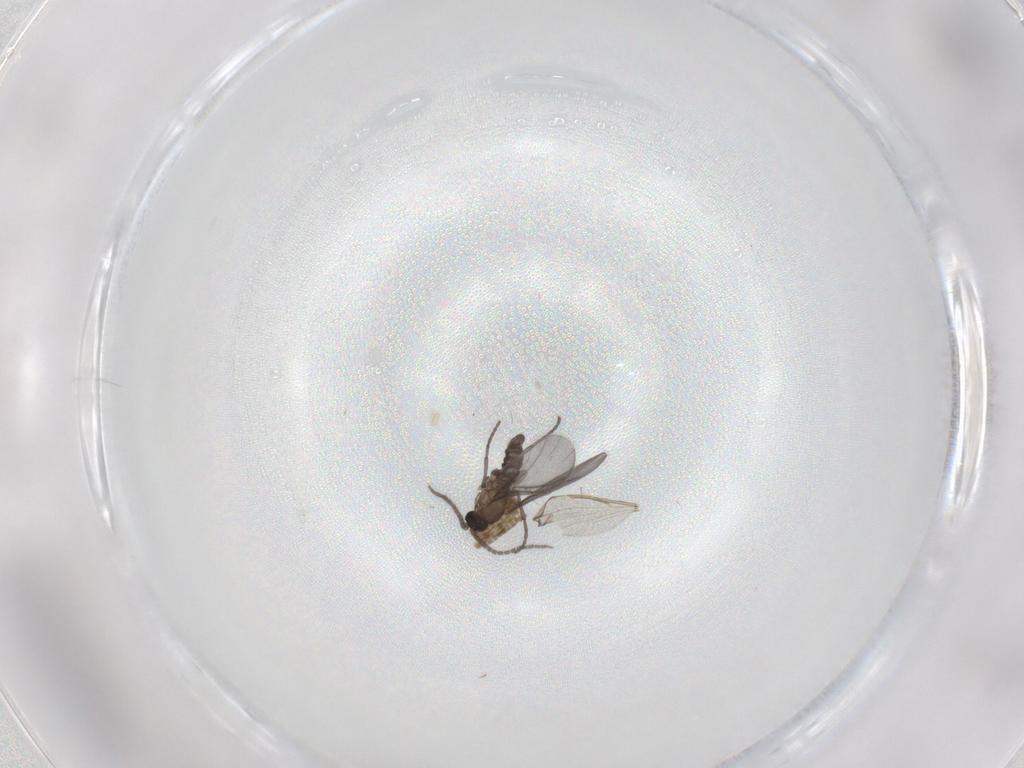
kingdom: Animalia
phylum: Arthropoda
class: Insecta
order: Diptera
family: Sciaridae
